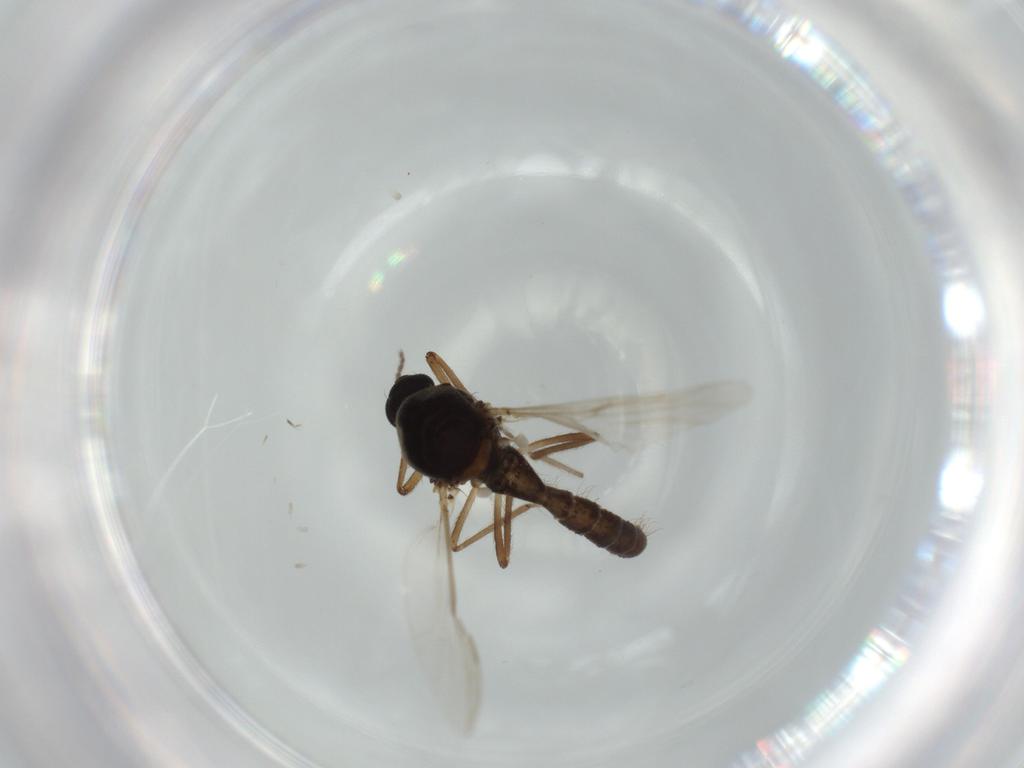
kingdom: Animalia
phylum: Arthropoda
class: Insecta
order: Diptera
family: Ceratopogonidae
